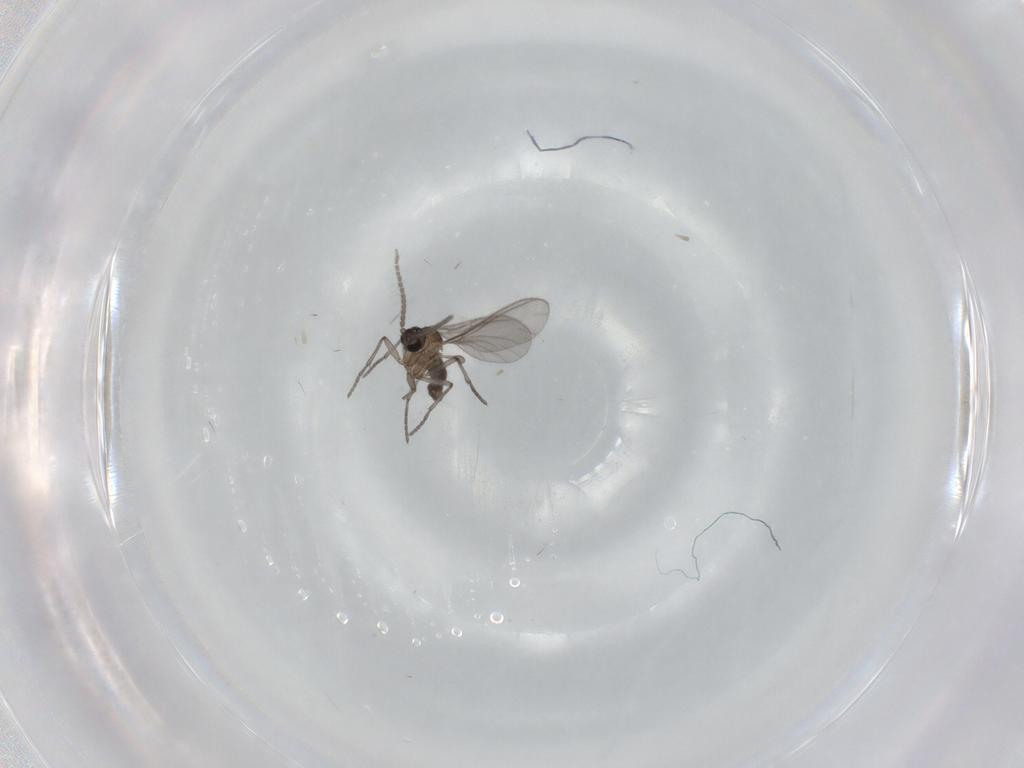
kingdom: Animalia
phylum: Arthropoda
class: Insecta
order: Diptera
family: Sciaridae
